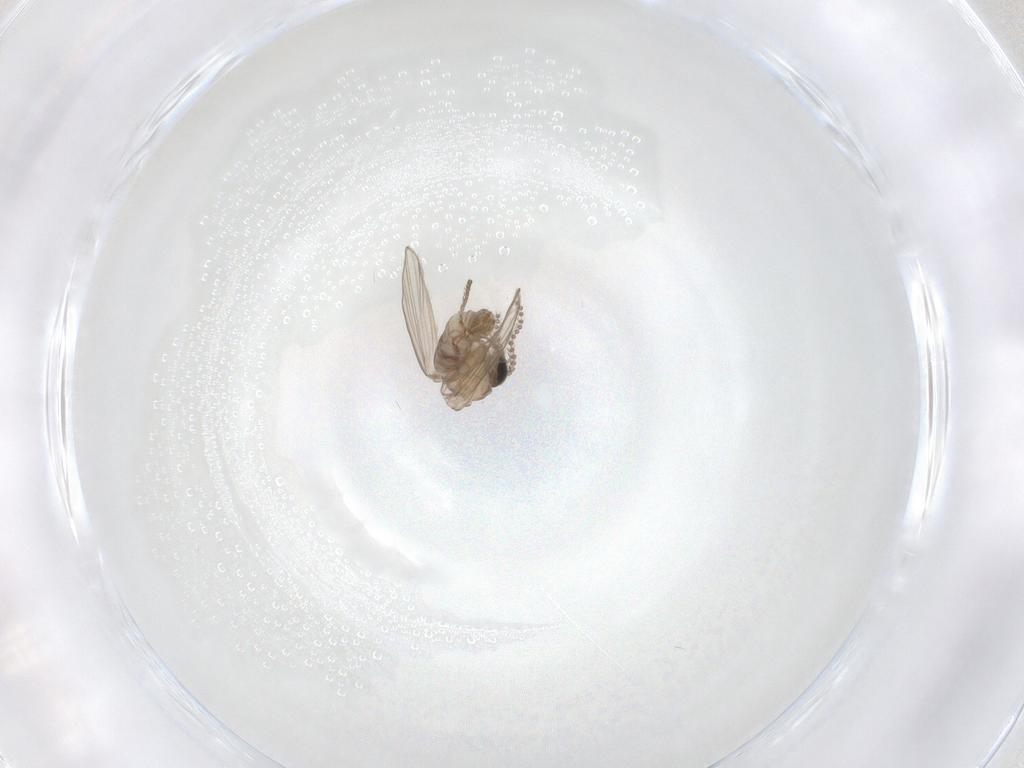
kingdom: Animalia
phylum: Arthropoda
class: Insecta
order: Diptera
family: Psychodidae
